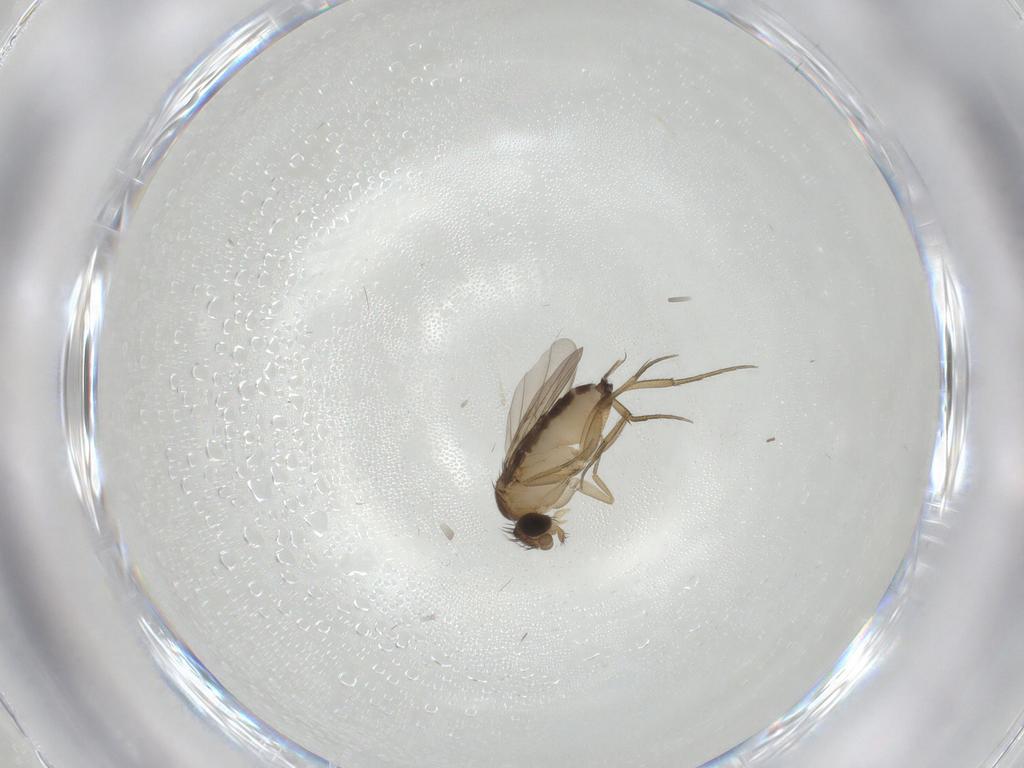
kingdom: Animalia
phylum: Arthropoda
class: Insecta
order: Diptera
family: Phoridae
